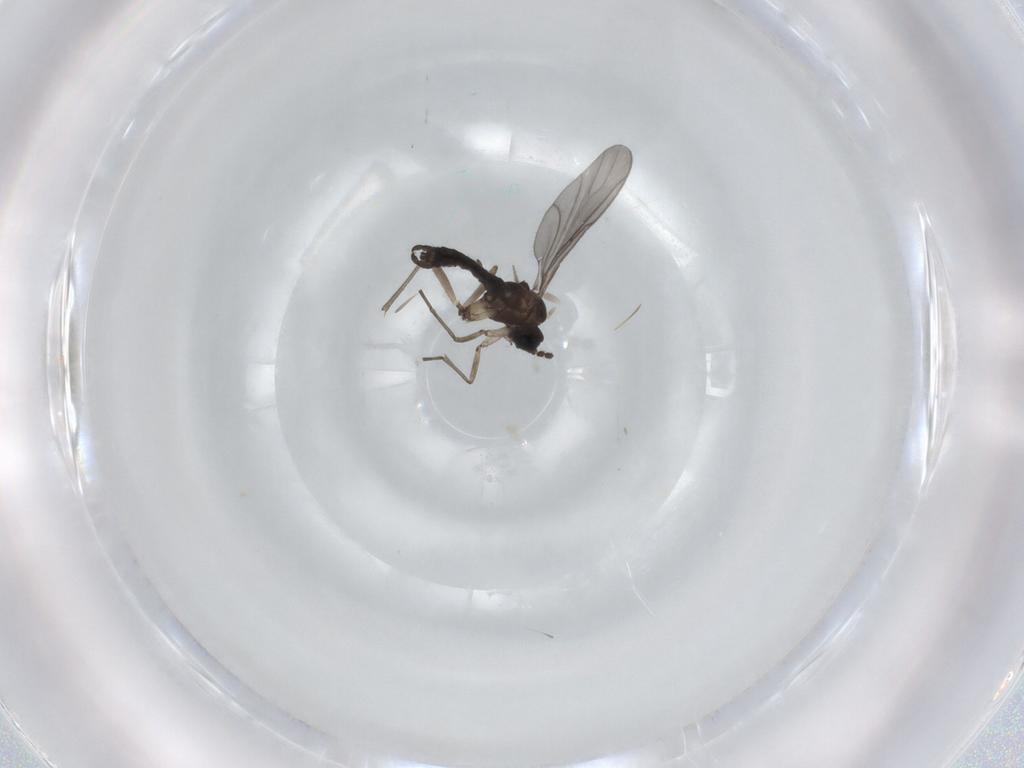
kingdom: Animalia
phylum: Arthropoda
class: Insecta
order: Diptera
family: Sciaridae
